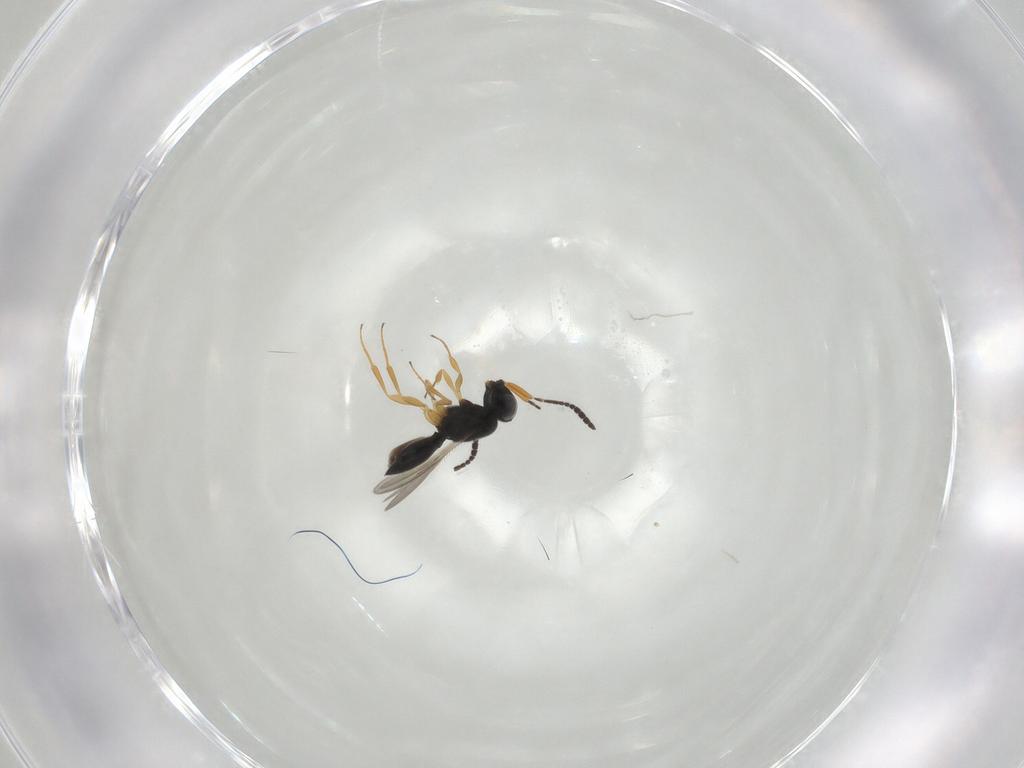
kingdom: Animalia
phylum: Arthropoda
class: Insecta
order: Hymenoptera
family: Scelionidae
